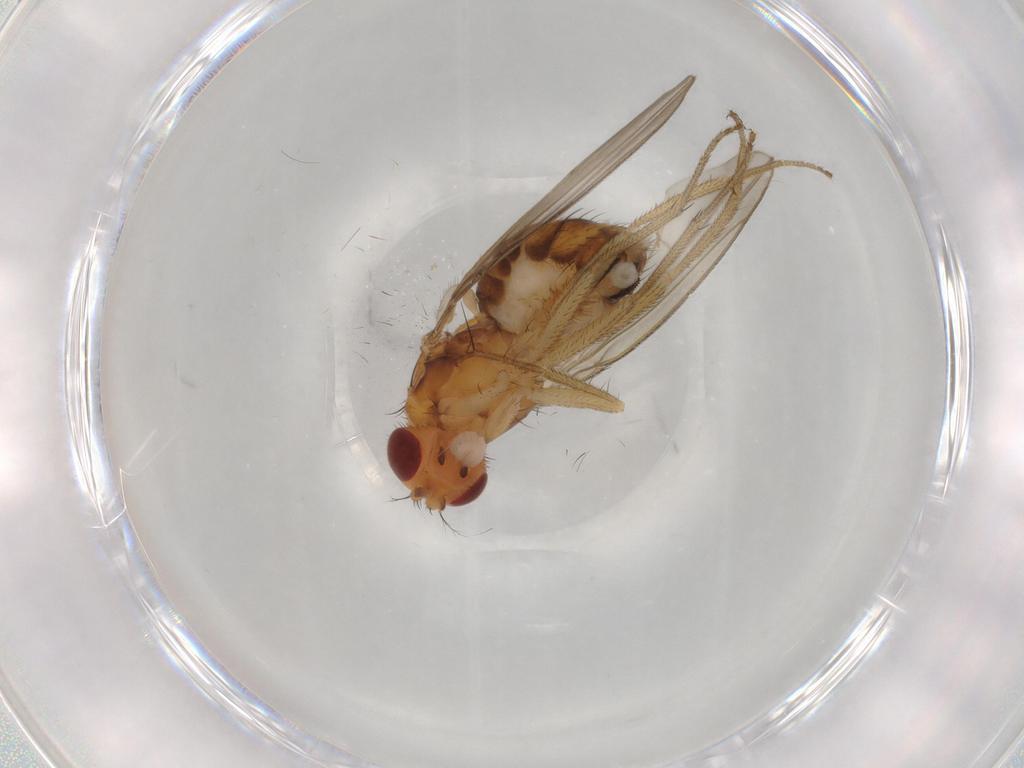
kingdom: Animalia
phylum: Arthropoda
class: Insecta
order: Diptera
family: Drosophilidae
